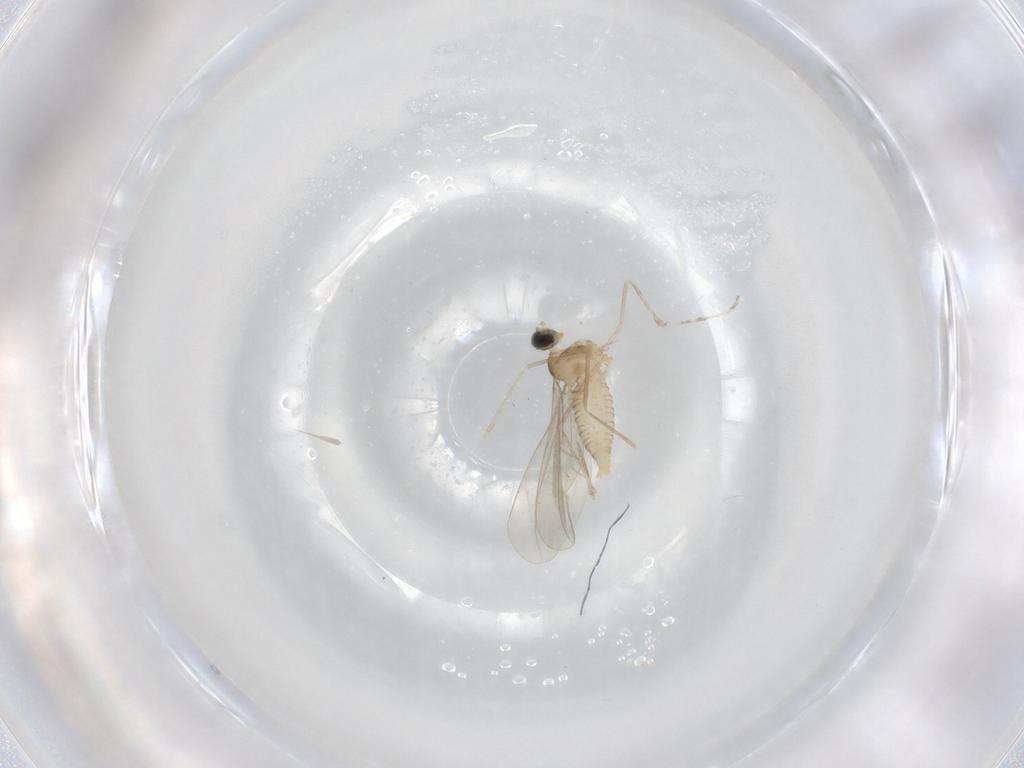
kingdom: Animalia
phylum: Arthropoda
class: Insecta
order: Diptera
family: Cecidomyiidae
